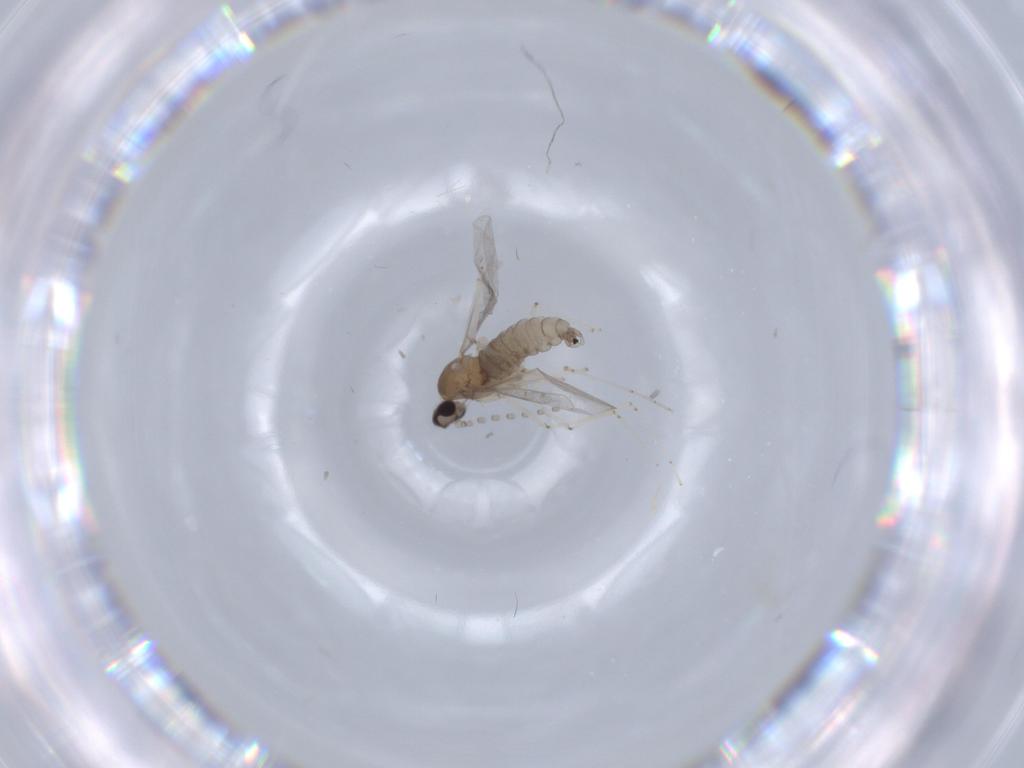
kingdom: Animalia
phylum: Arthropoda
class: Insecta
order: Diptera
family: Cecidomyiidae
